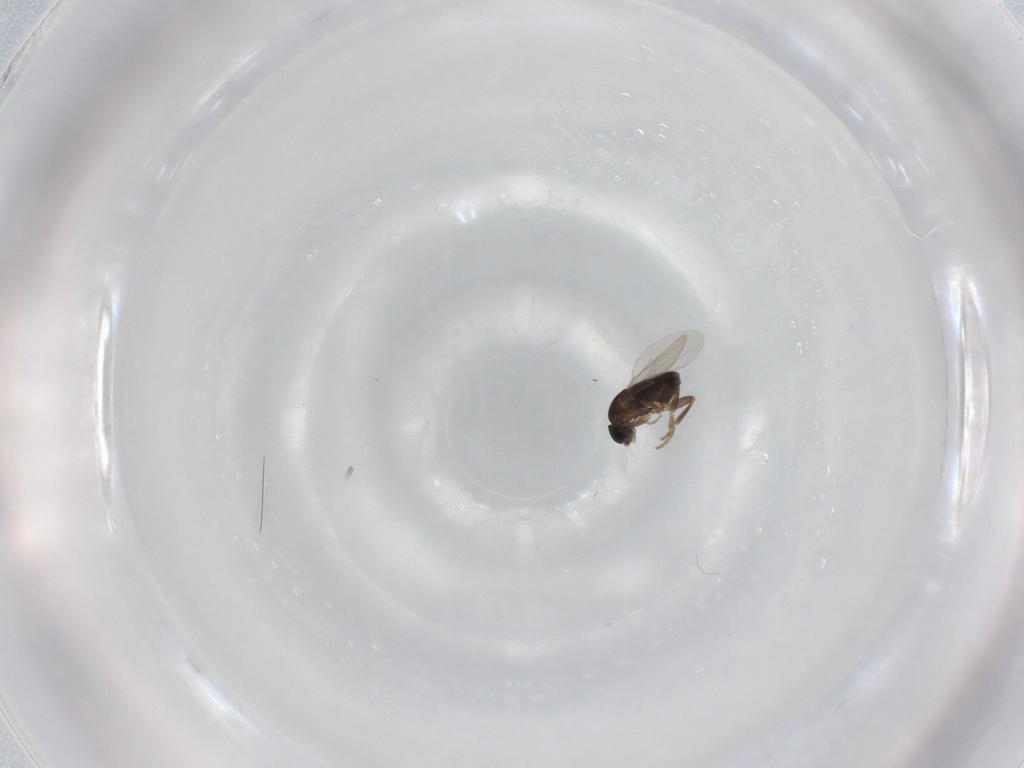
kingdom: Animalia
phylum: Arthropoda
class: Insecta
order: Diptera
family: Phoridae
